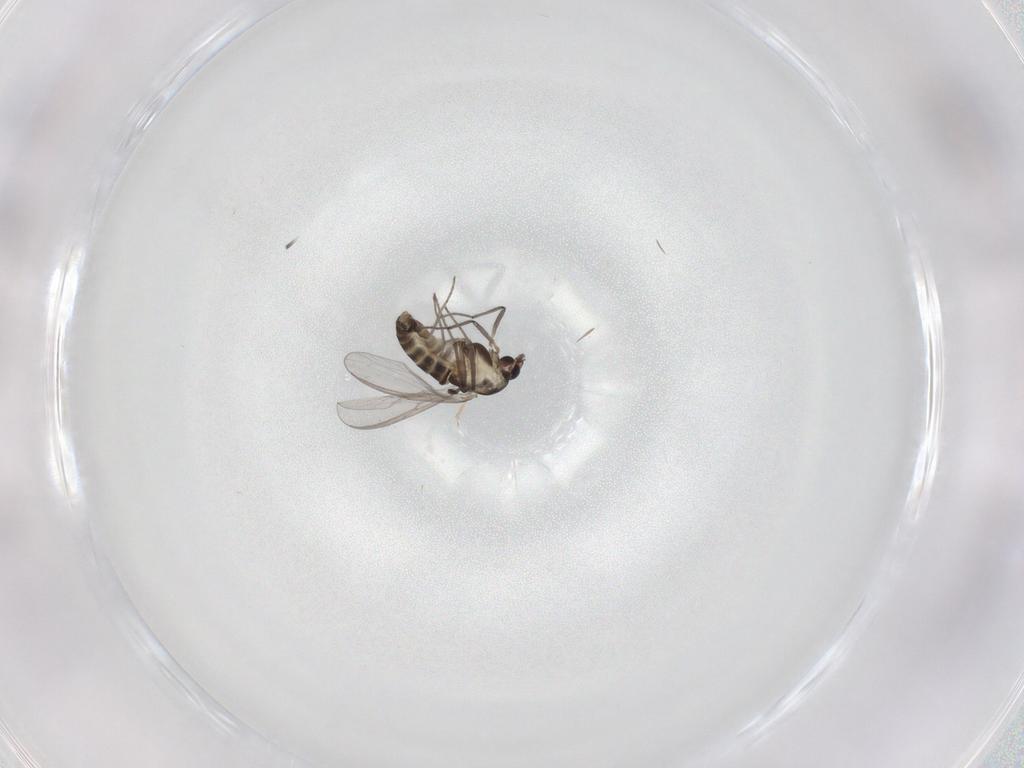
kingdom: Animalia
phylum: Arthropoda
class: Insecta
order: Diptera
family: Chironomidae
